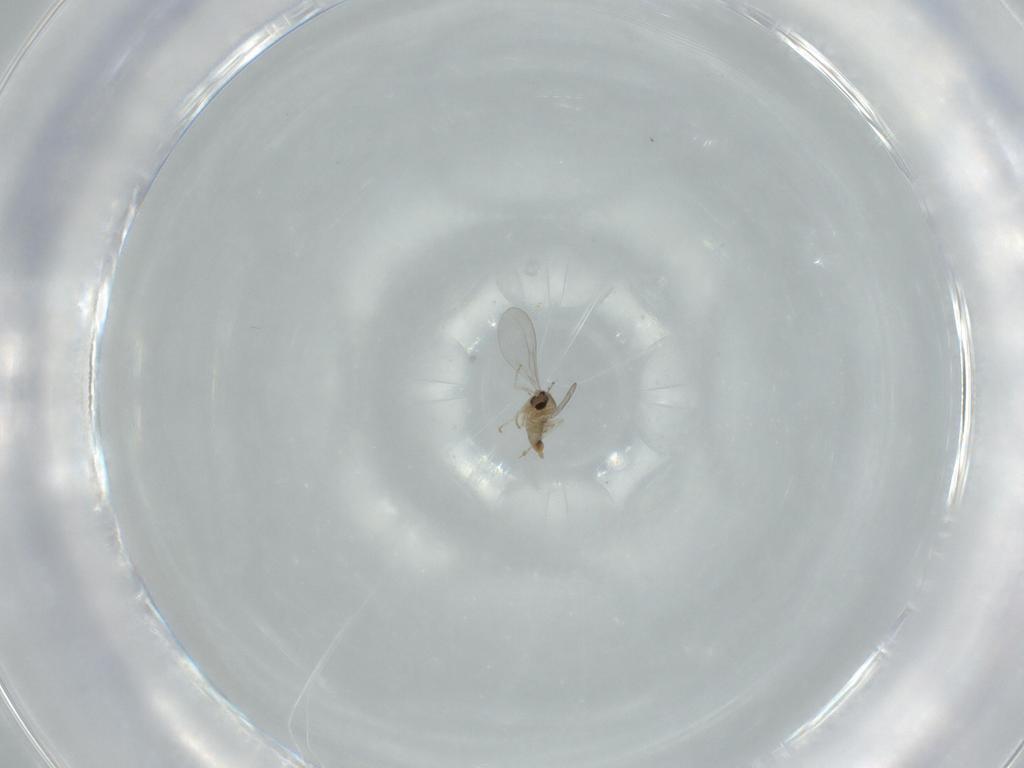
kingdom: Animalia
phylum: Arthropoda
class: Insecta
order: Diptera
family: Cecidomyiidae
